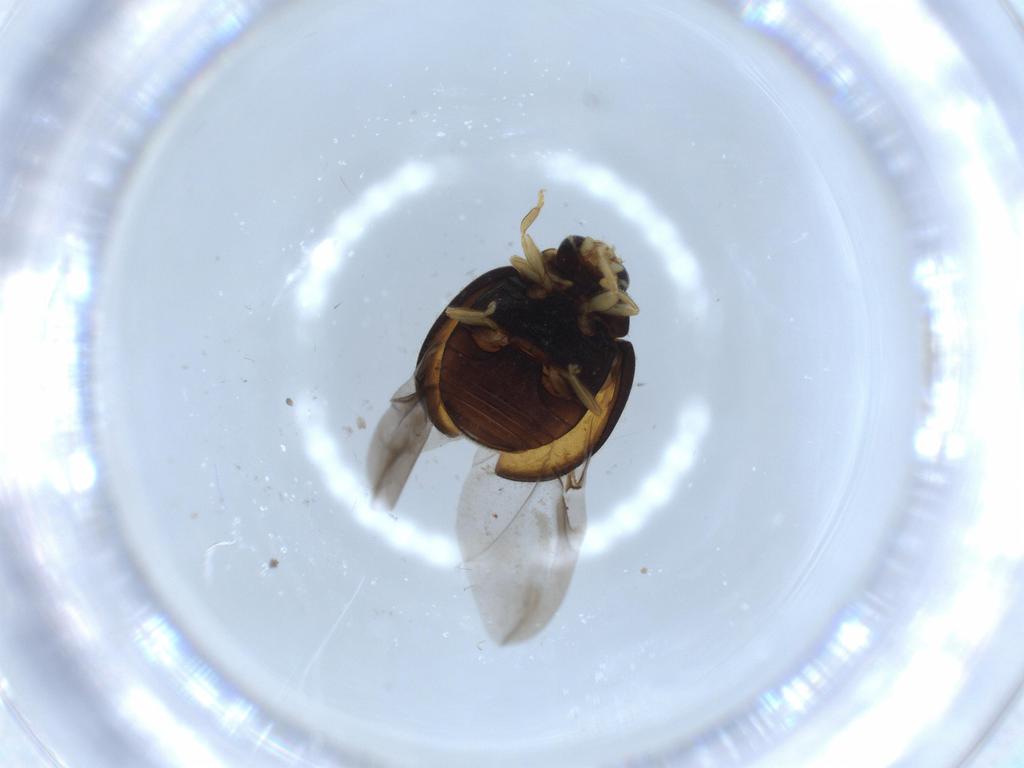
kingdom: Animalia
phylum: Arthropoda
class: Insecta
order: Coleoptera
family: Coccinellidae
